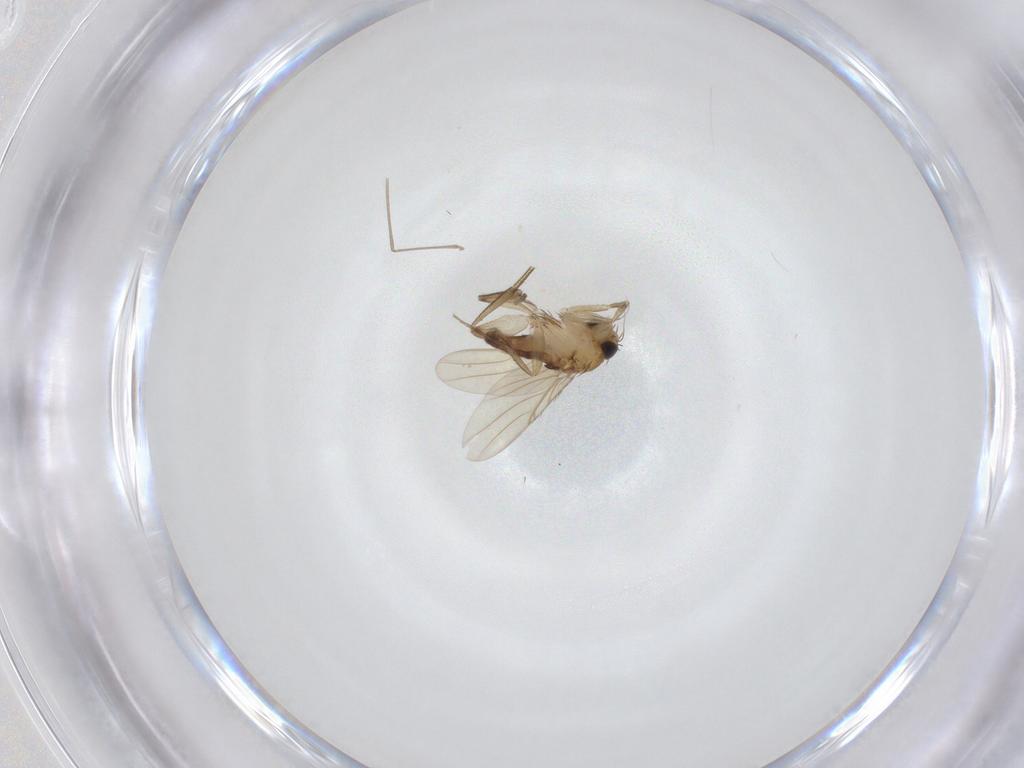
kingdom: Animalia
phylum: Arthropoda
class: Insecta
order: Diptera
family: Phoridae
